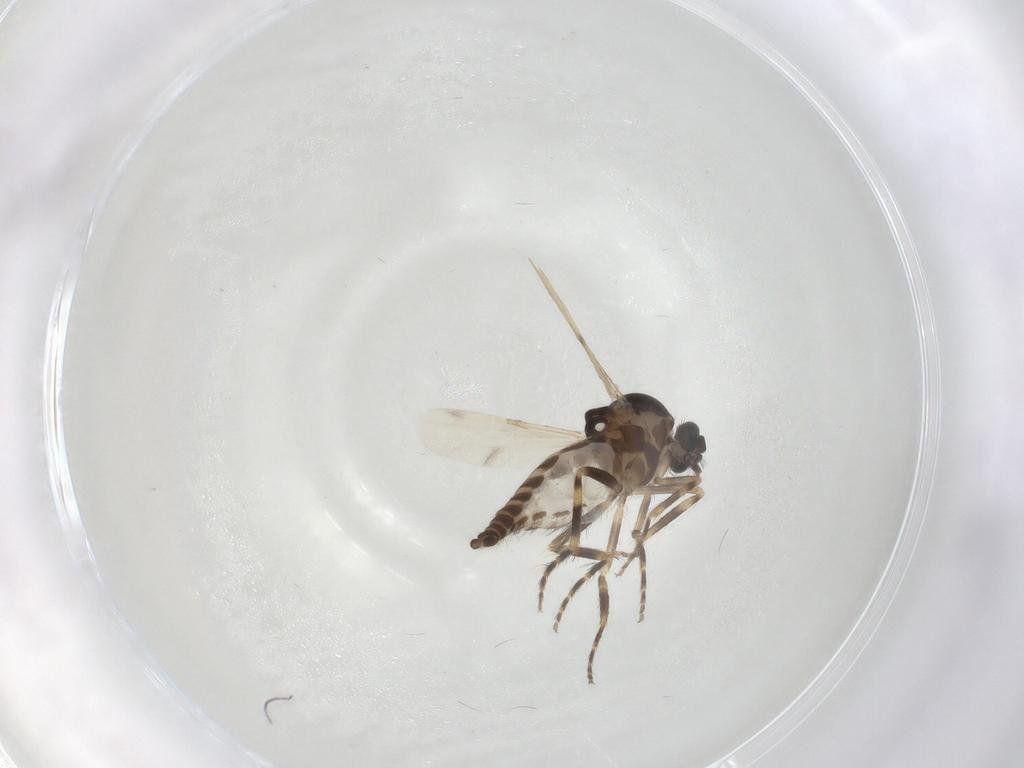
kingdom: Animalia
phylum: Arthropoda
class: Insecta
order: Diptera
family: Ceratopogonidae
